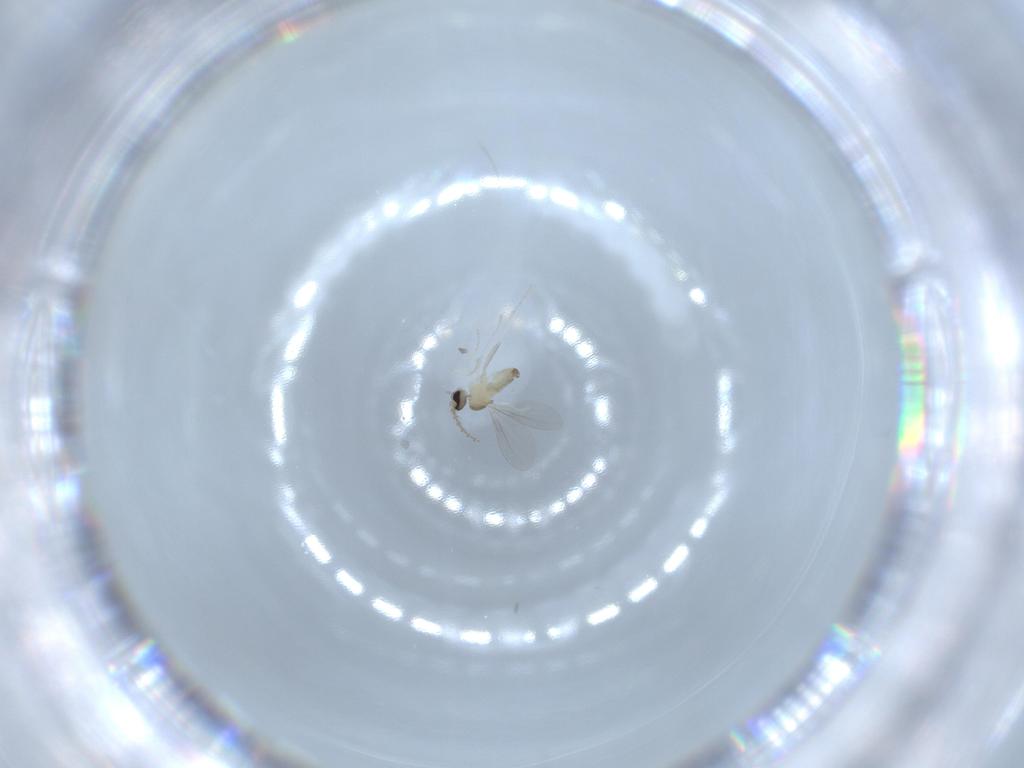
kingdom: Animalia
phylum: Arthropoda
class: Insecta
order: Diptera
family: Cecidomyiidae
